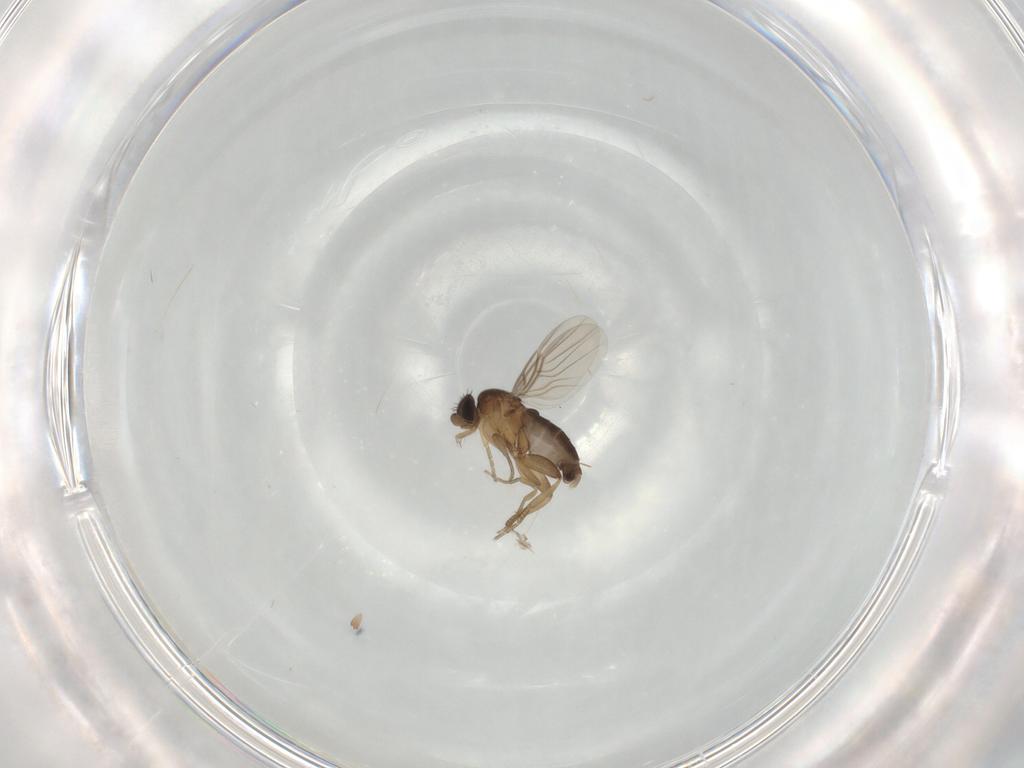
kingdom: Animalia
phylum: Arthropoda
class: Insecta
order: Diptera
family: Phoridae
